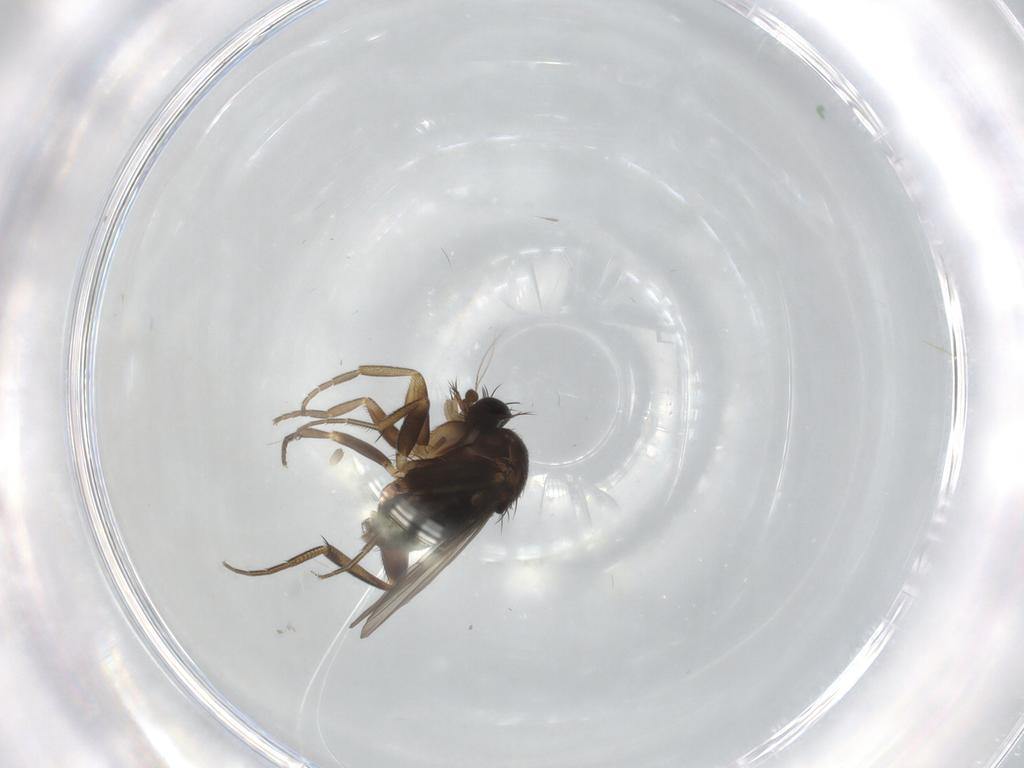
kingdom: Animalia
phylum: Arthropoda
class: Insecta
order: Diptera
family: Phoridae
